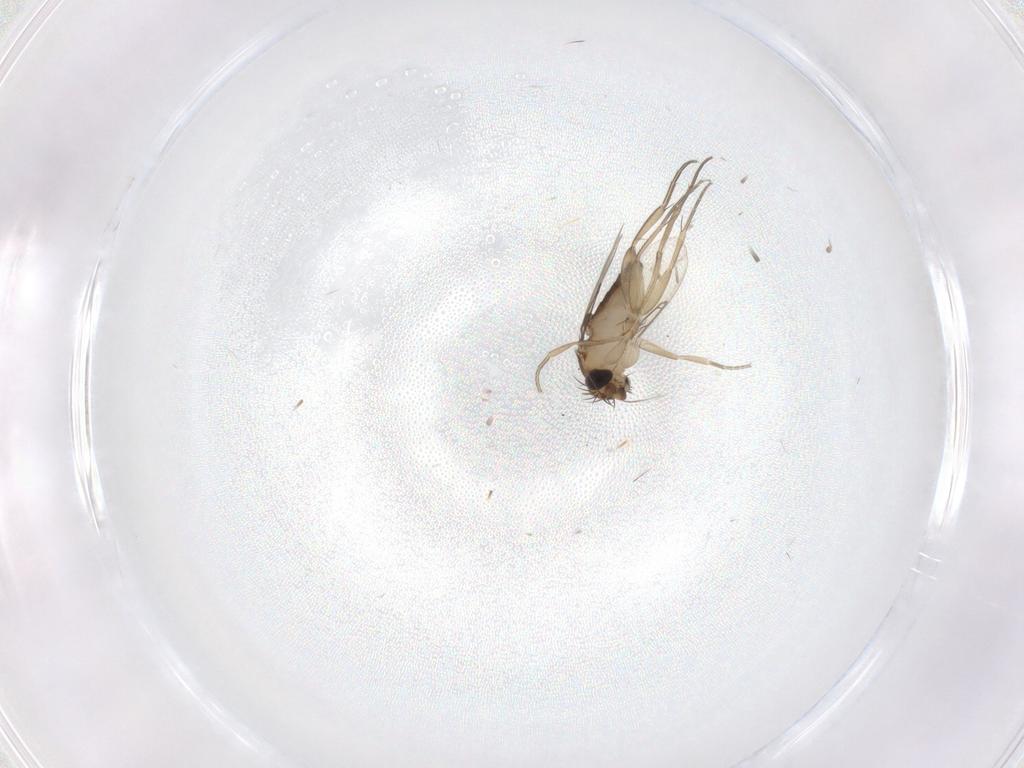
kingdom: Animalia
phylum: Arthropoda
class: Insecta
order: Diptera
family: Phoridae
